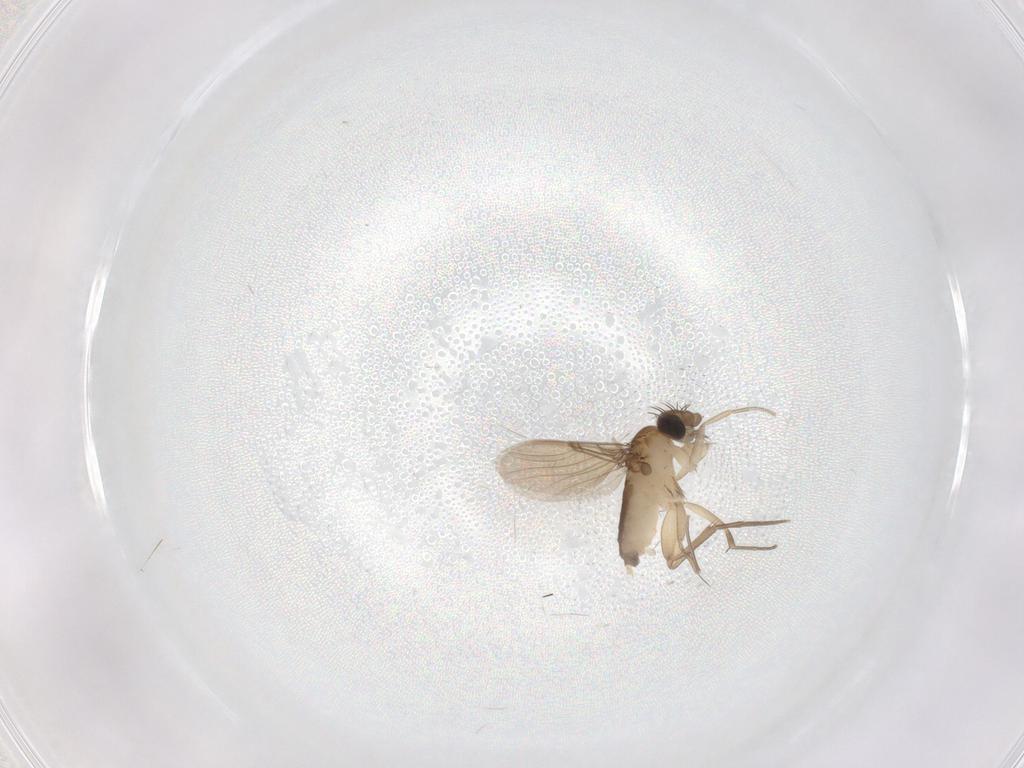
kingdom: Animalia
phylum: Arthropoda
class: Insecta
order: Diptera
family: Phoridae
